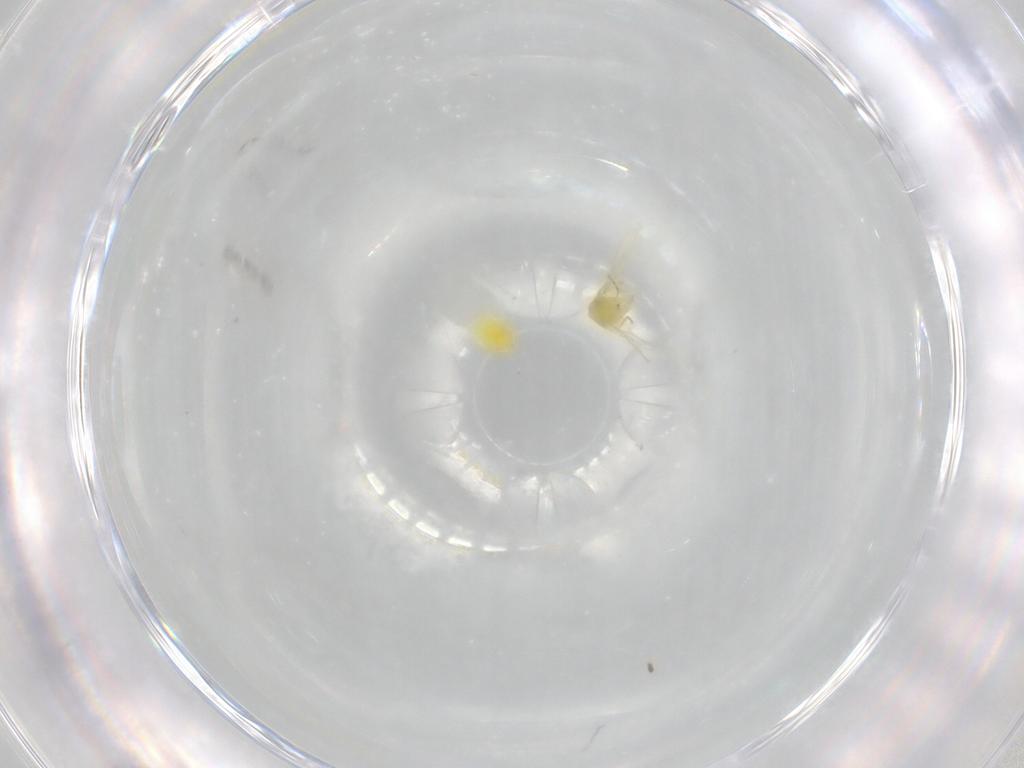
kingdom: Animalia
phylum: Arthropoda
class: Insecta
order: Hemiptera
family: Aleyrodidae
